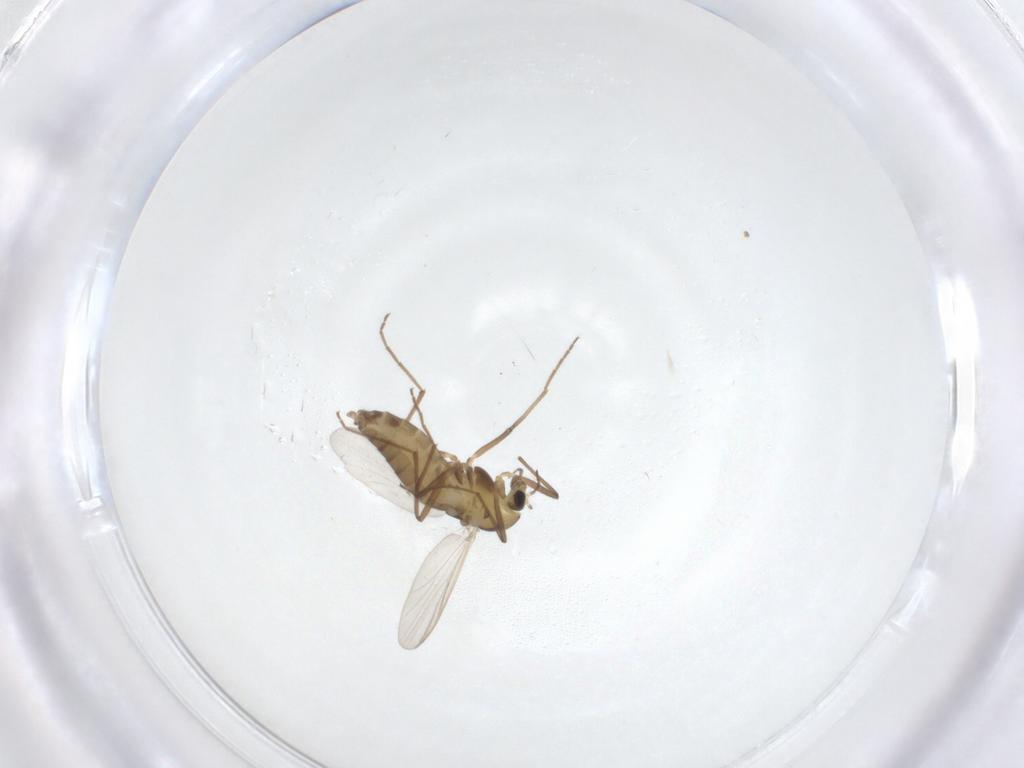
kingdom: Animalia
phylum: Arthropoda
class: Insecta
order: Diptera
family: Chironomidae
